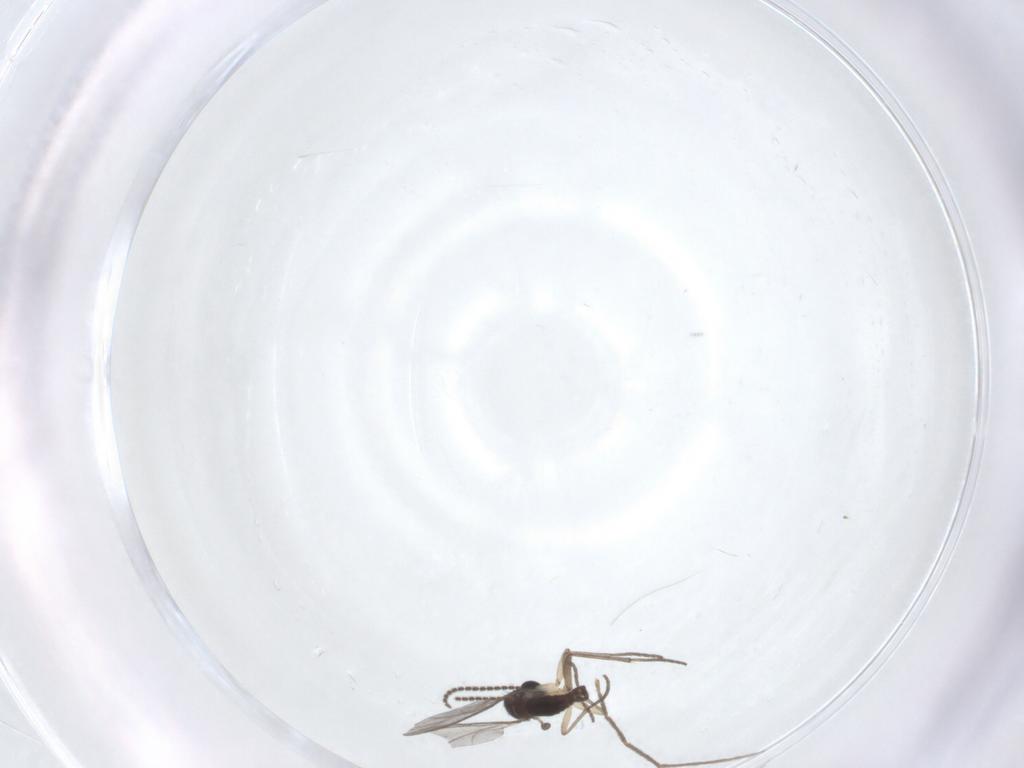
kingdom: Animalia
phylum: Arthropoda
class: Insecta
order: Diptera
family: Sciaridae
